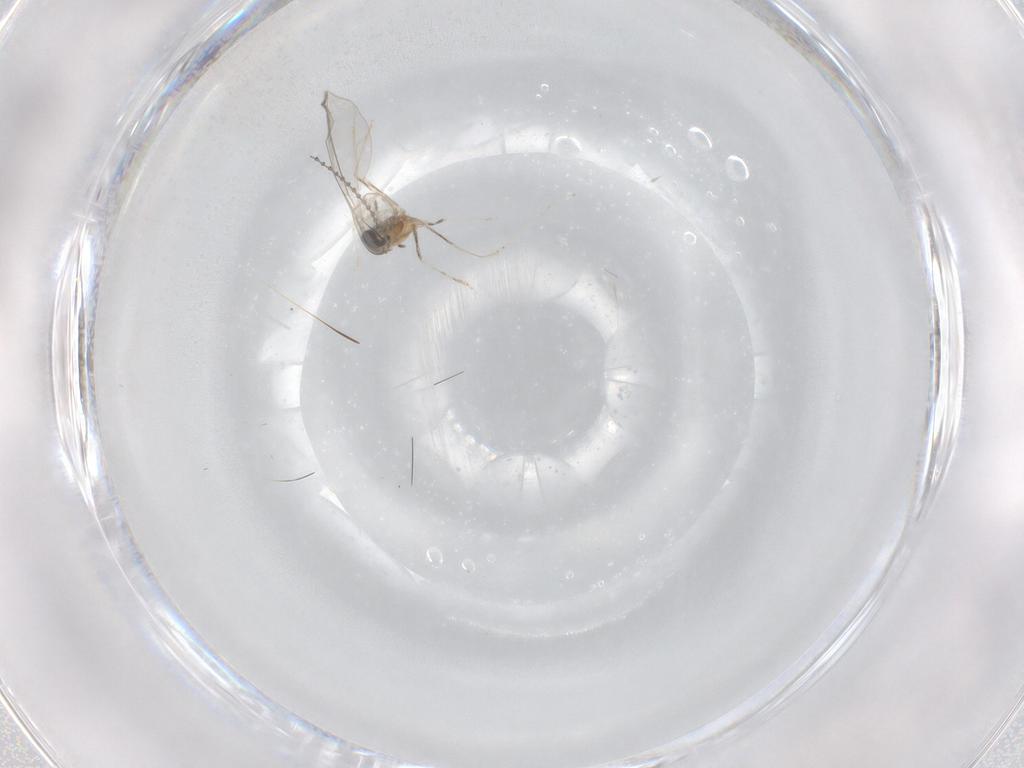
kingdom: Animalia
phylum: Arthropoda
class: Insecta
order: Diptera
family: Cecidomyiidae
